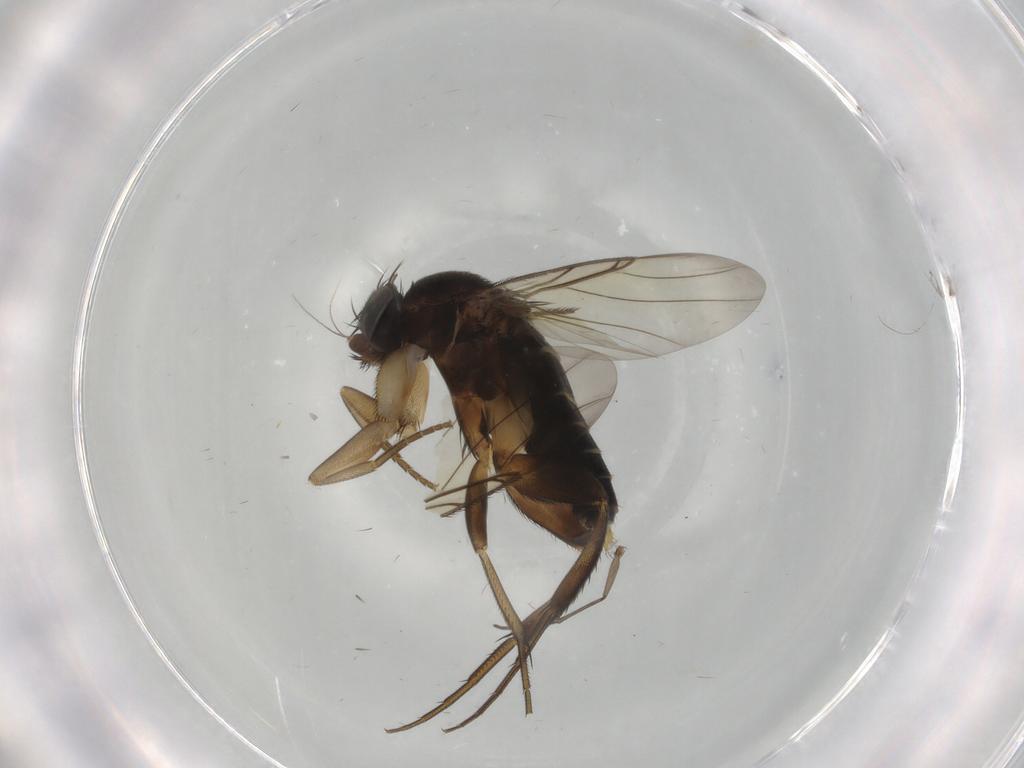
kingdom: Animalia
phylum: Arthropoda
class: Insecta
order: Diptera
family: Phoridae
